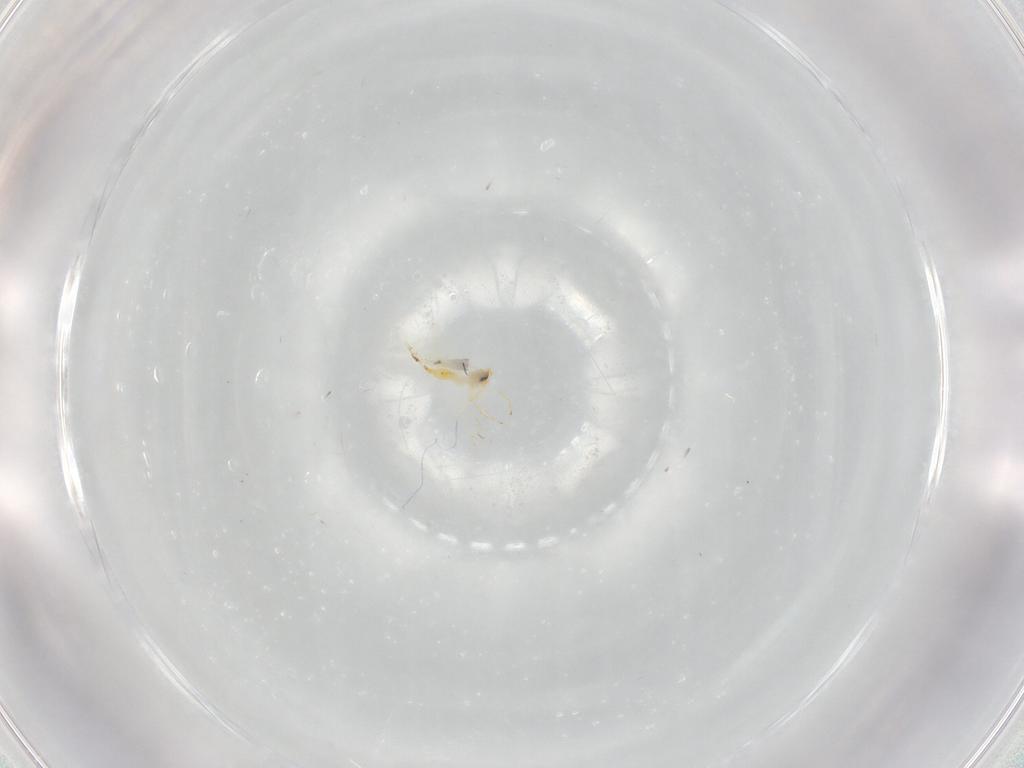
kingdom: Animalia
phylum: Arthropoda
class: Insecta
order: Hemiptera
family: Aleyrodidae
